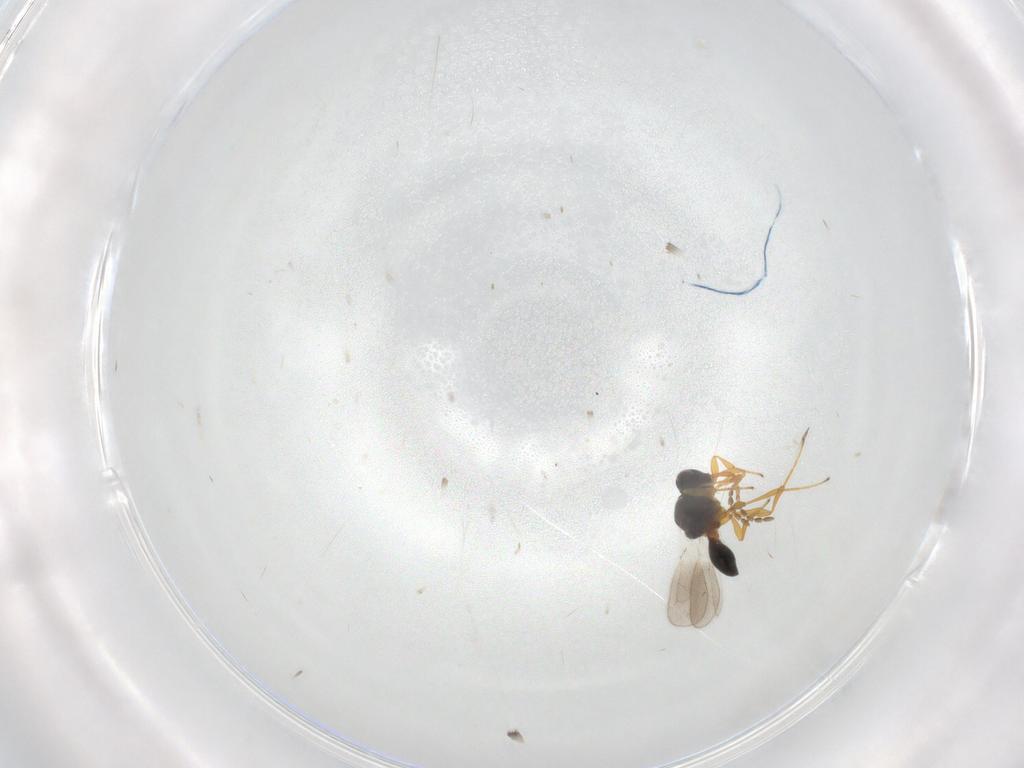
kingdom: Animalia
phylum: Arthropoda
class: Insecta
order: Hymenoptera
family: Platygastridae
